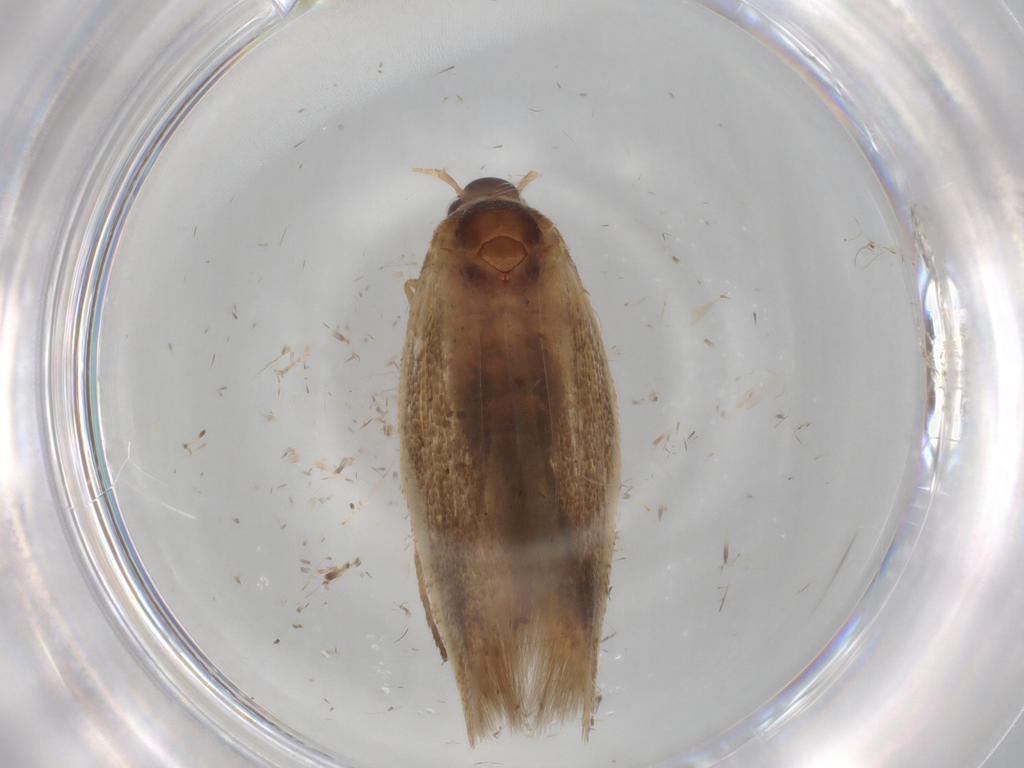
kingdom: Animalia
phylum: Arthropoda
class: Insecta
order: Lepidoptera
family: Scythrididae
